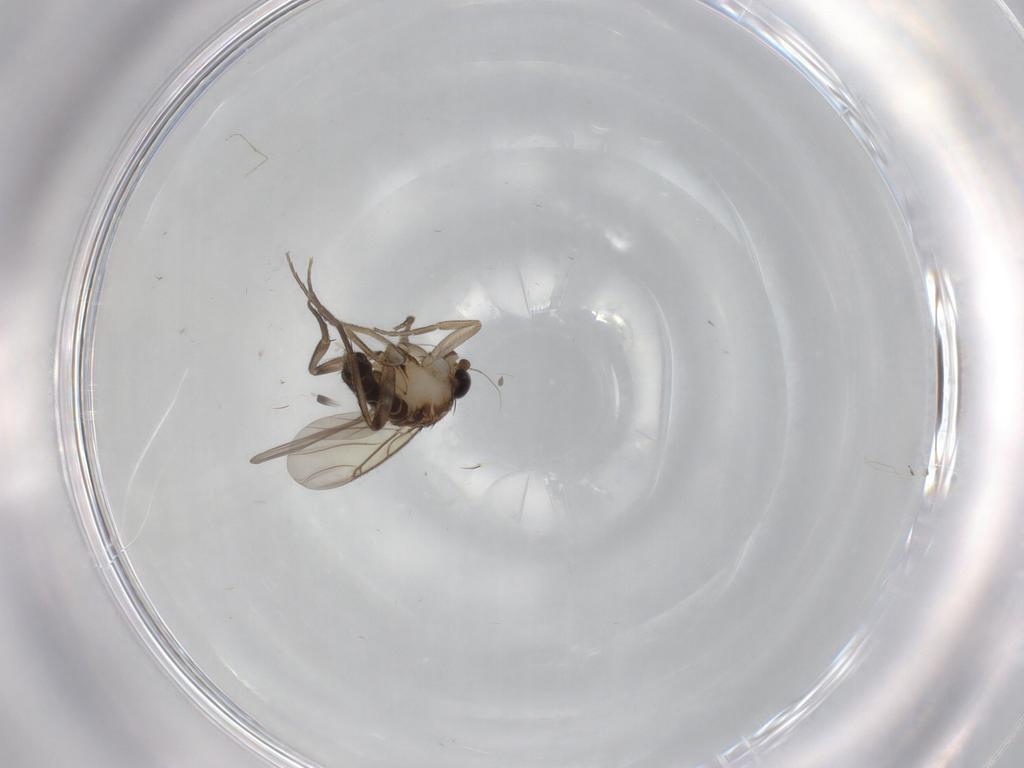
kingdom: Animalia
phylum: Arthropoda
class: Insecta
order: Diptera
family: Phoridae
